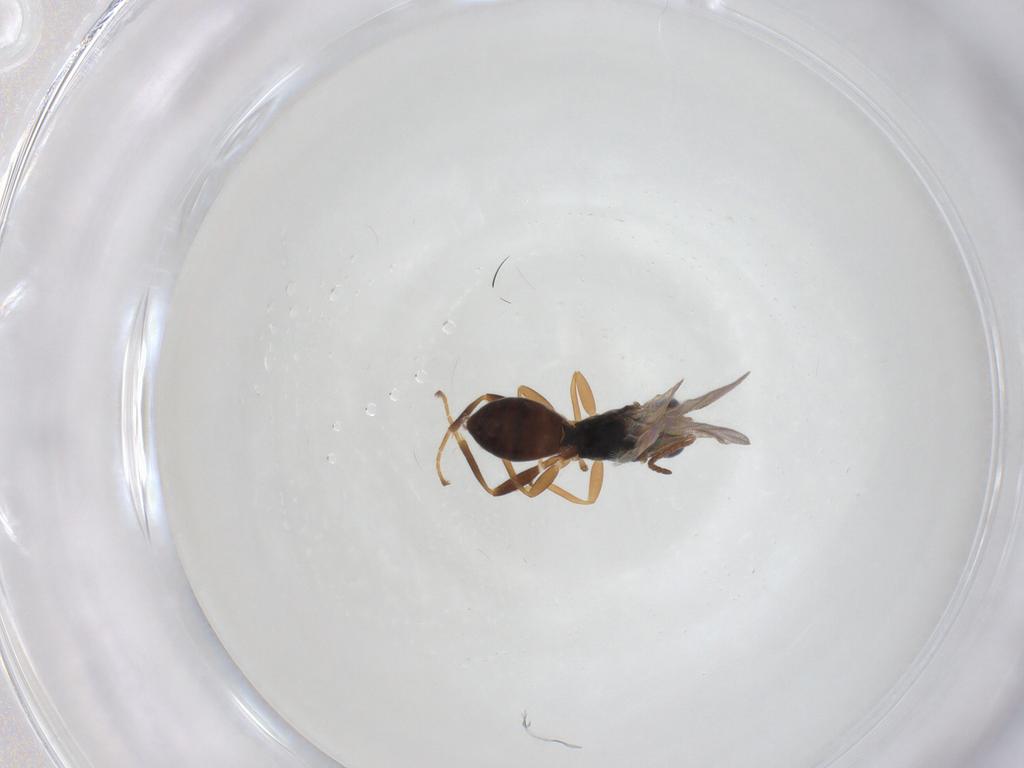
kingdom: Animalia
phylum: Arthropoda
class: Insecta
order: Hymenoptera
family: Braconidae
